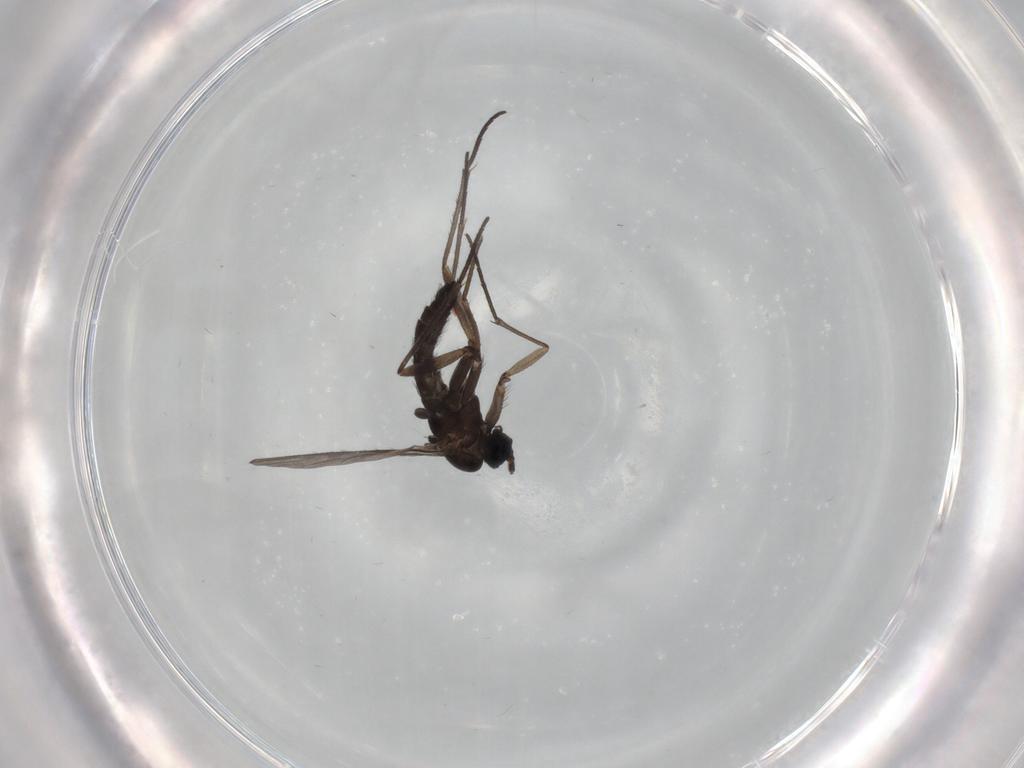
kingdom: Animalia
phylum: Arthropoda
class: Insecta
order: Diptera
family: Sciaridae
